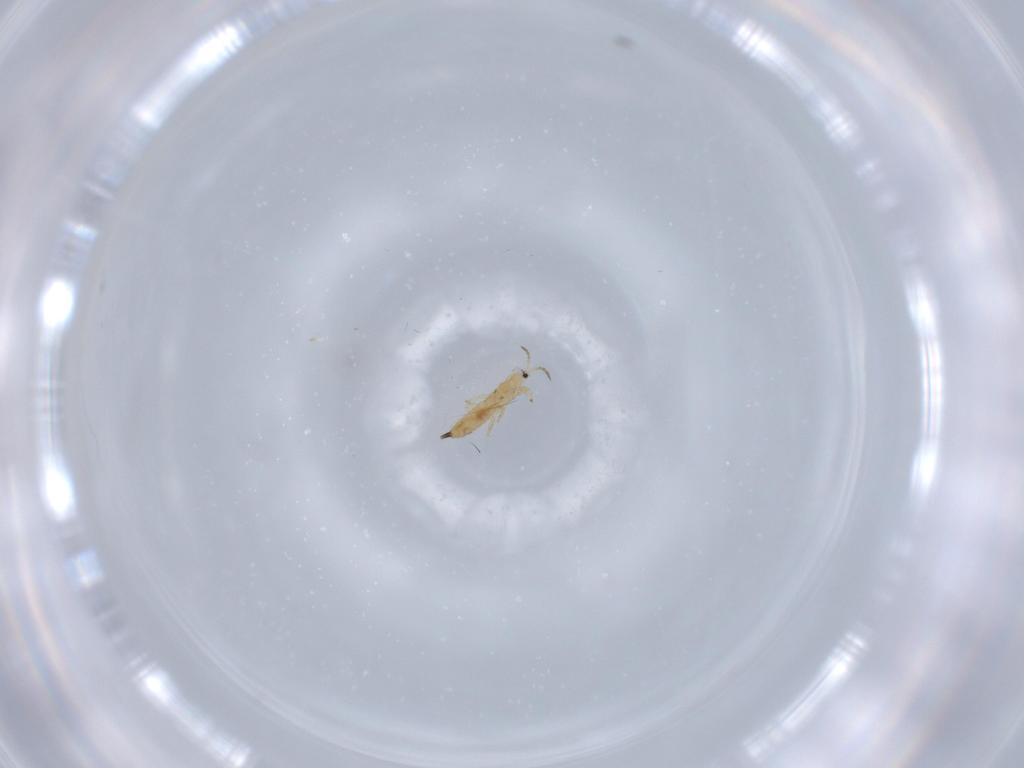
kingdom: Animalia
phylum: Arthropoda
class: Insecta
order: Thysanoptera
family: Phlaeothripidae
